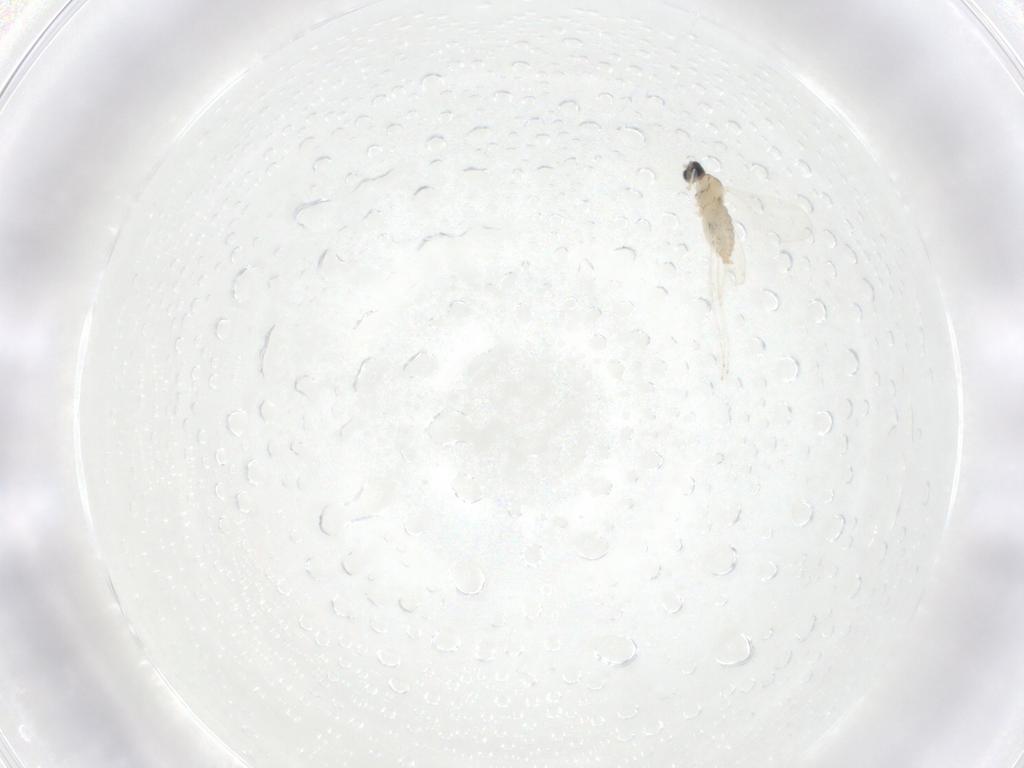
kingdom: Animalia
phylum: Arthropoda
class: Insecta
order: Diptera
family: Cecidomyiidae
